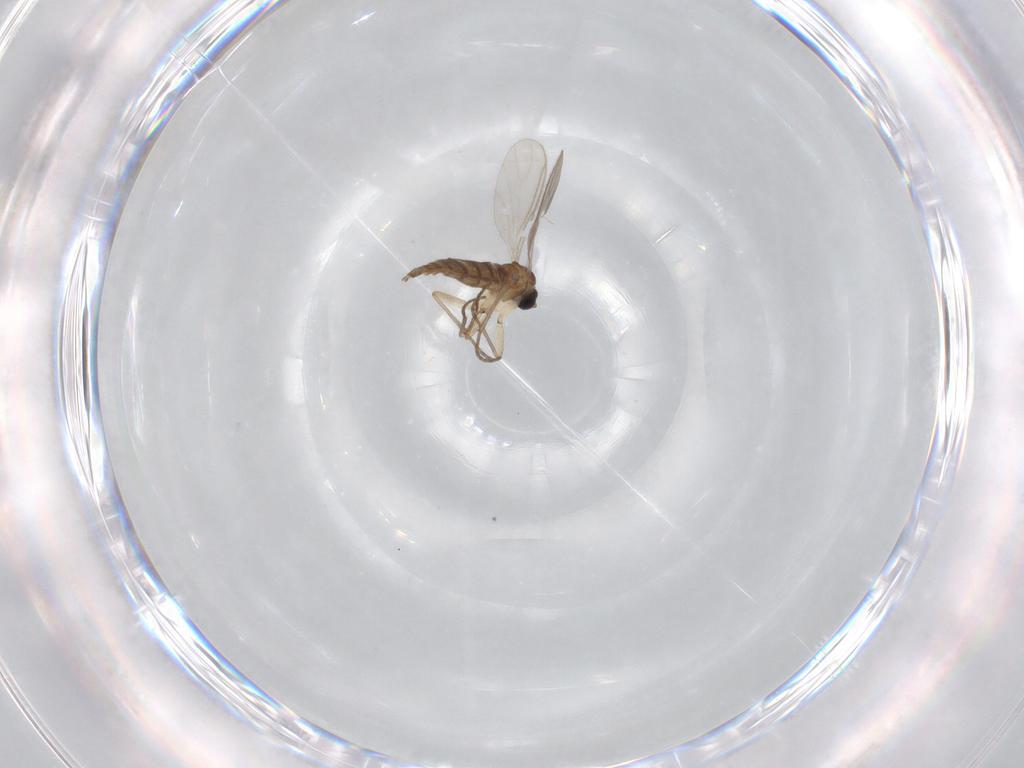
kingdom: Animalia
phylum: Arthropoda
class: Insecta
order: Diptera
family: Sciaridae
